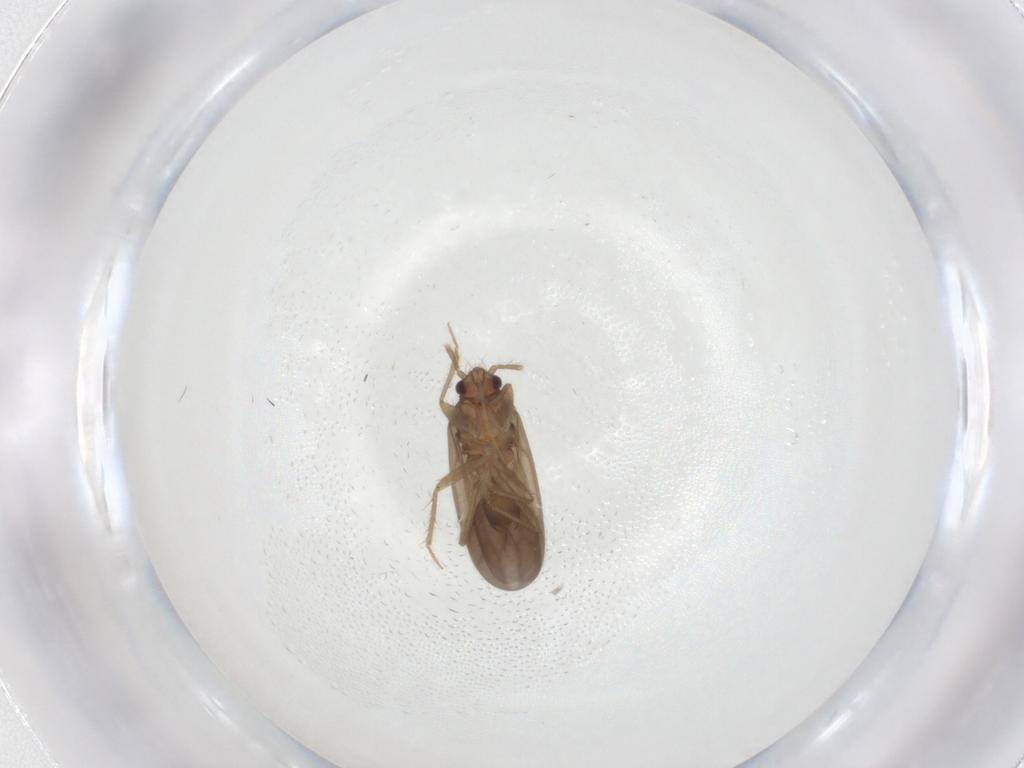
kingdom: Animalia
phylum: Arthropoda
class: Insecta
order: Hemiptera
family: Ceratocombidae
